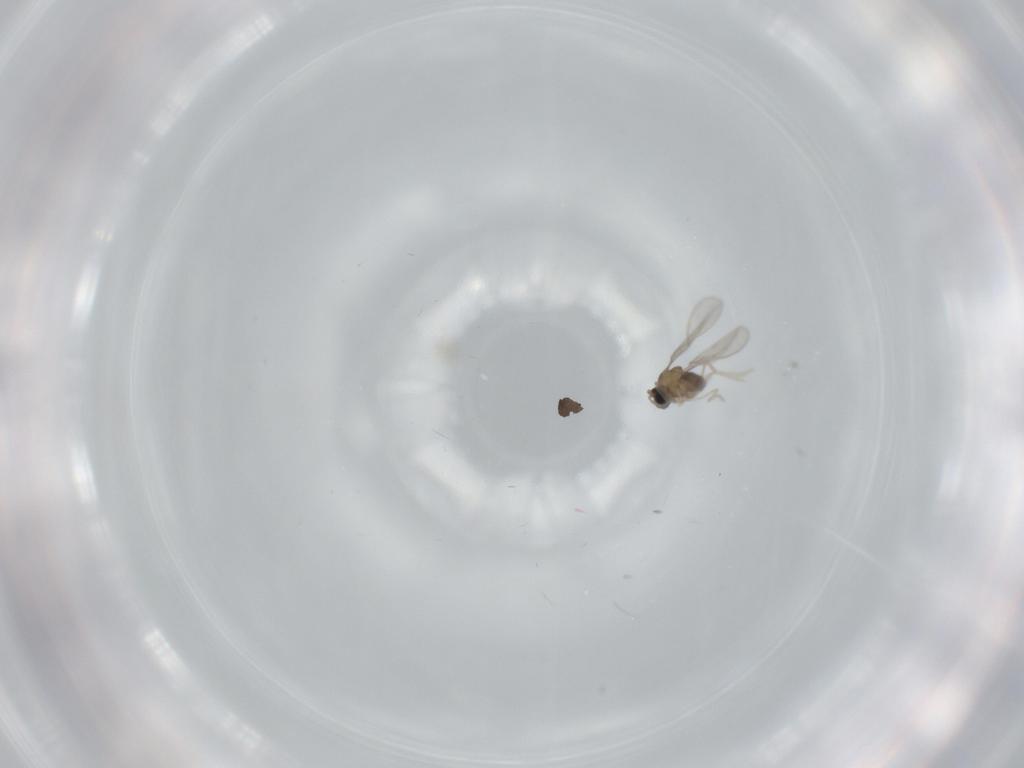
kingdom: Animalia
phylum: Arthropoda
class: Insecta
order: Diptera
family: Cecidomyiidae
